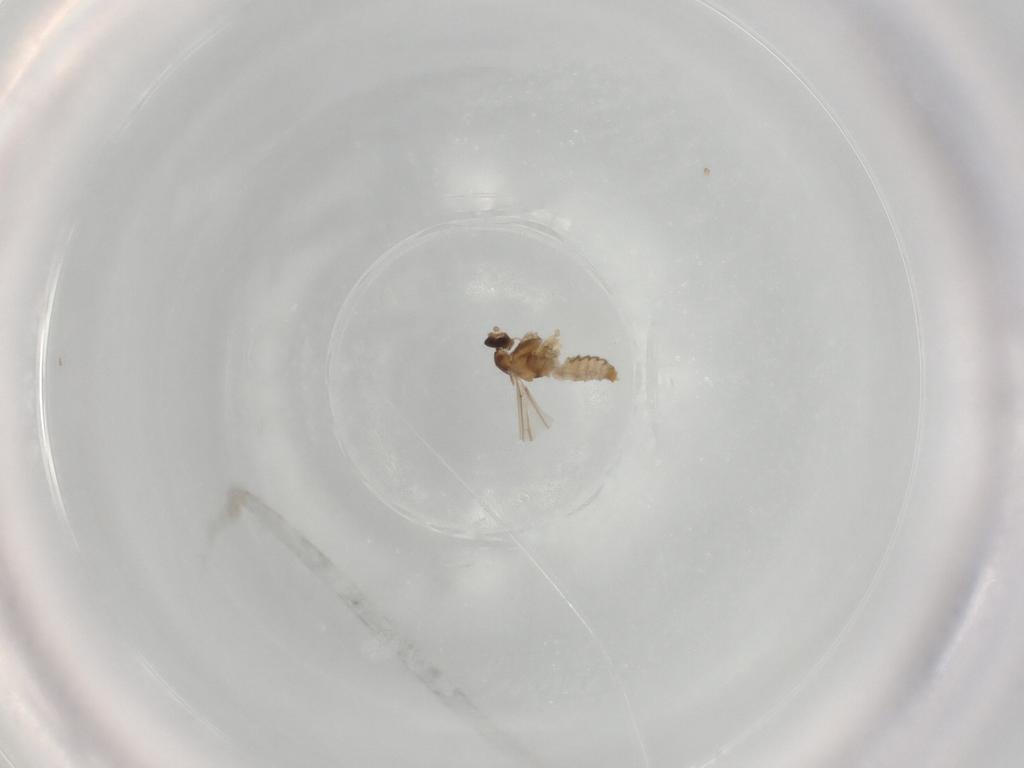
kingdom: Animalia
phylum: Arthropoda
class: Insecta
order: Diptera
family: Cecidomyiidae
